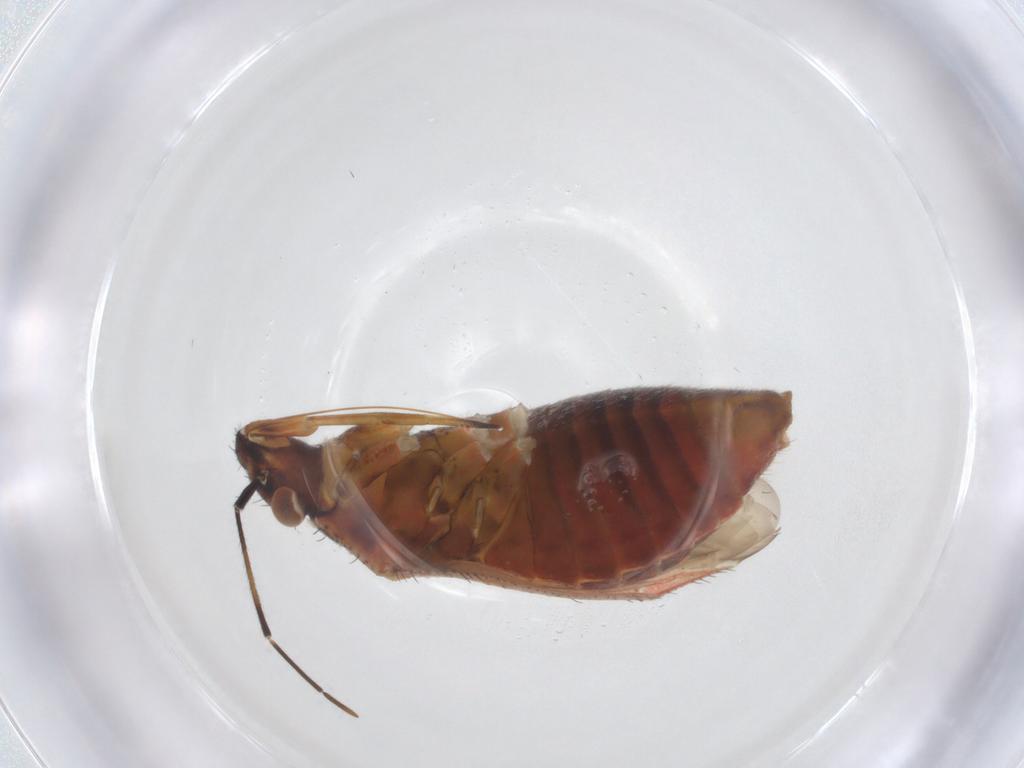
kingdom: Animalia
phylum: Arthropoda
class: Insecta
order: Hemiptera
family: Miridae
